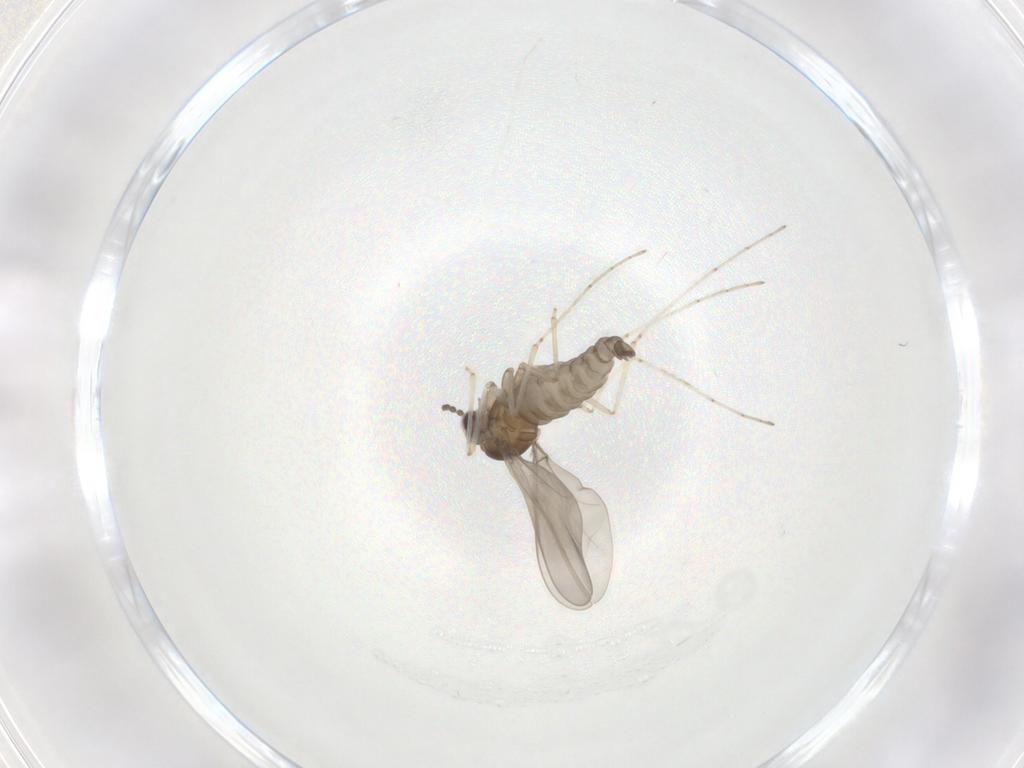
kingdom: Animalia
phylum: Arthropoda
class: Insecta
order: Diptera
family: Cecidomyiidae
